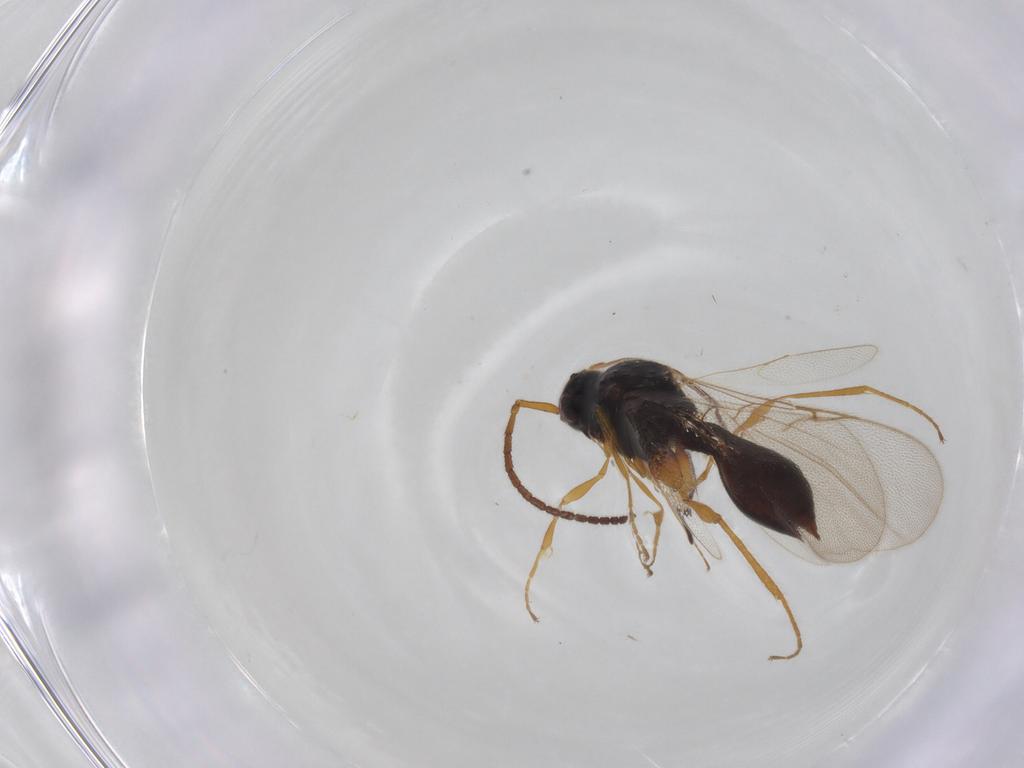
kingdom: Animalia
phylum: Arthropoda
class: Insecta
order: Hymenoptera
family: Diapriidae
